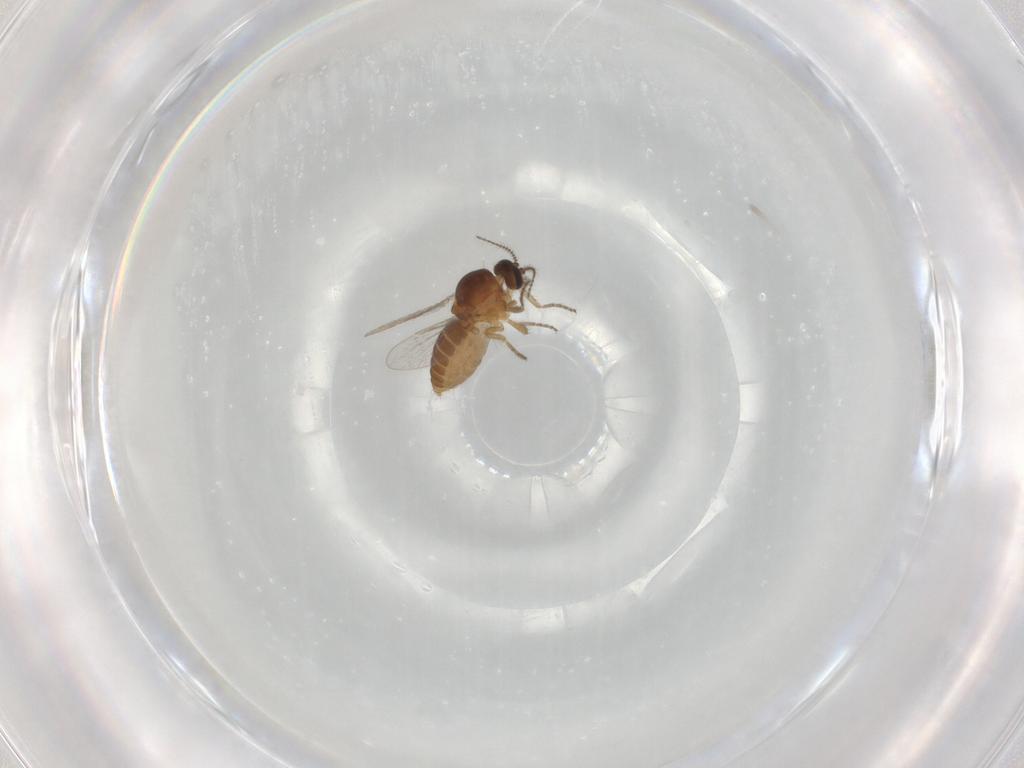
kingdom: Animalia
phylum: Arthropoda
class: Insecta
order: Diptera
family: Ceratopogonidae
